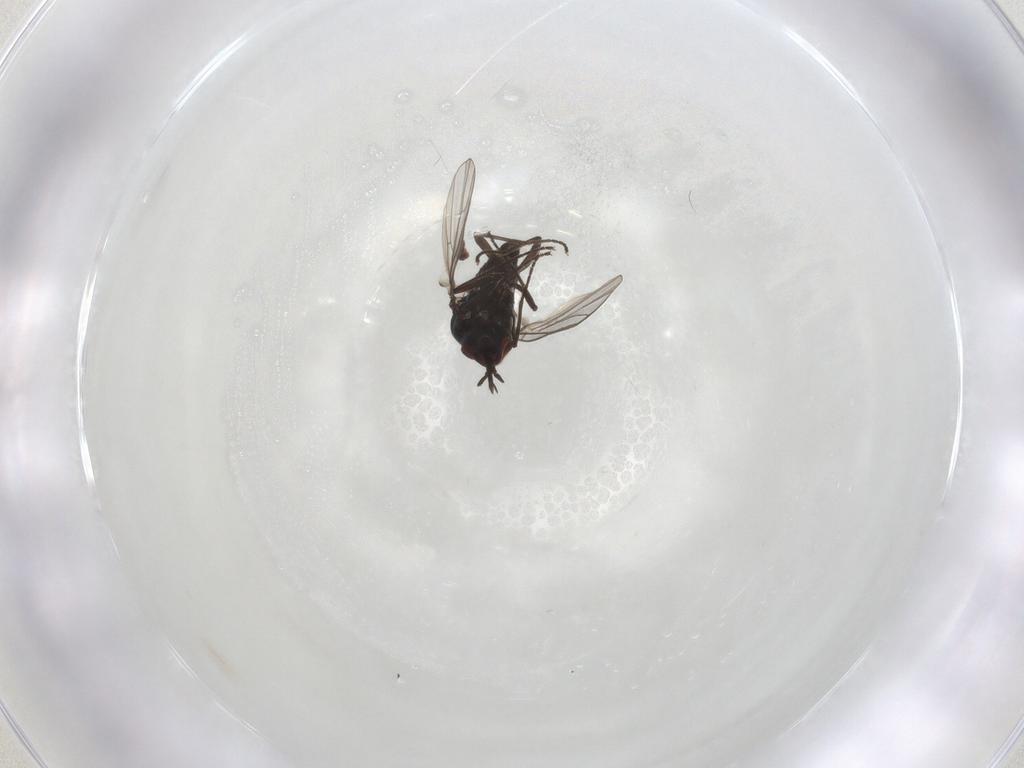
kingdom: Animalia
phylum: Arthropoda
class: Insecta
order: Diptera
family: Bombyliidae
